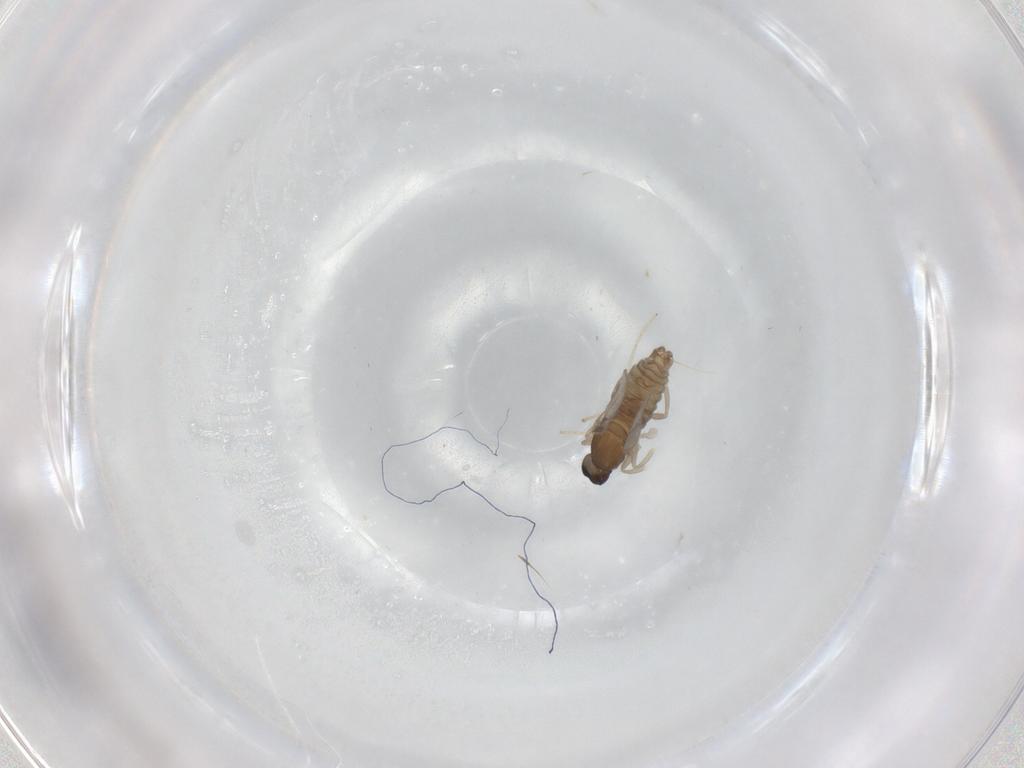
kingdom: Animalia
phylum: Arthropoda
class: Insecta
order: Diptera
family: Cecidomyiidae
